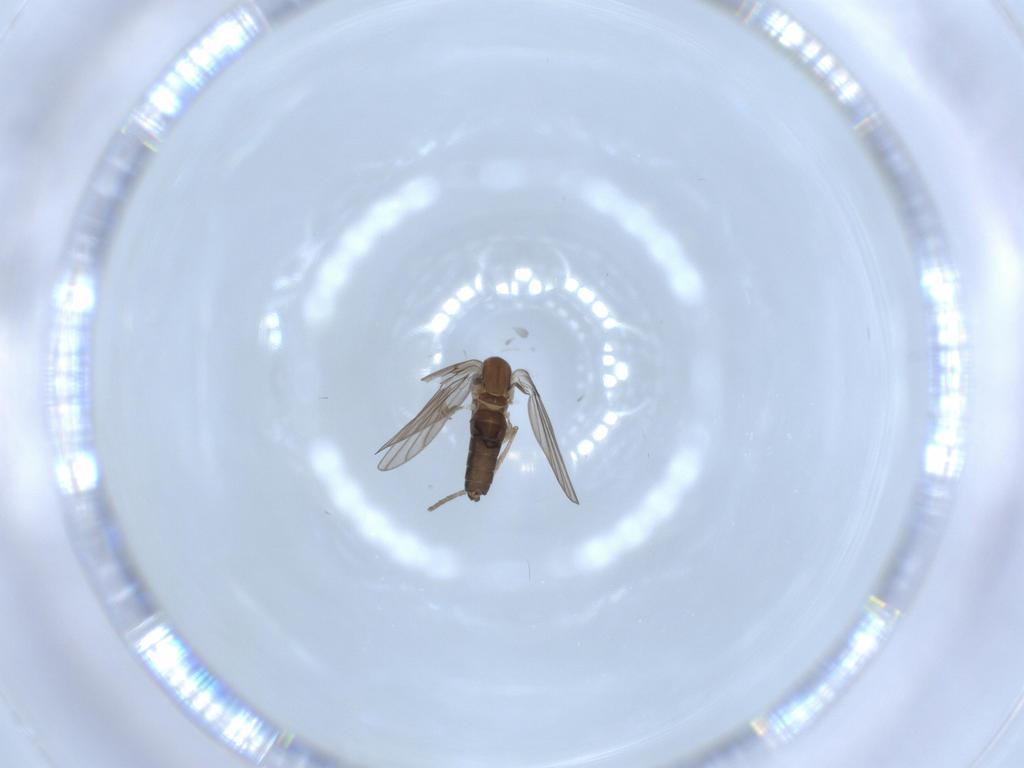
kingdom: Animalia
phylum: Arthropoda
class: Insecta
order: Diptera
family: Psychodidae
